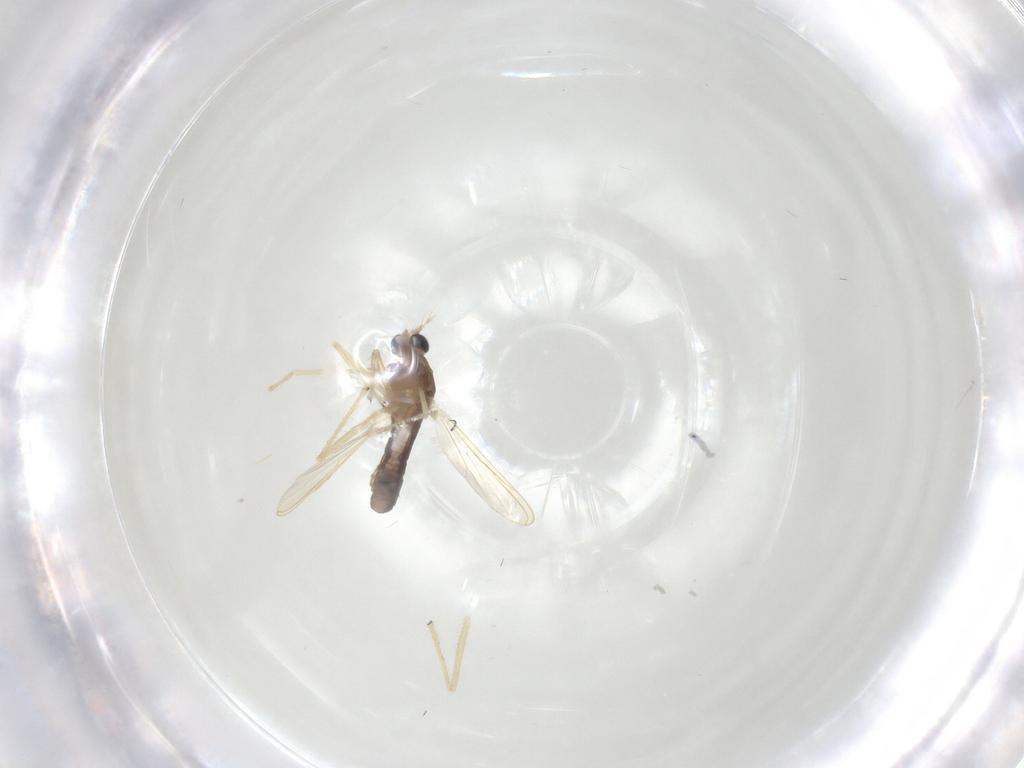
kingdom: Animalia
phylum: Arthropoda
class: Insecta
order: Diptera
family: Chironomidae
